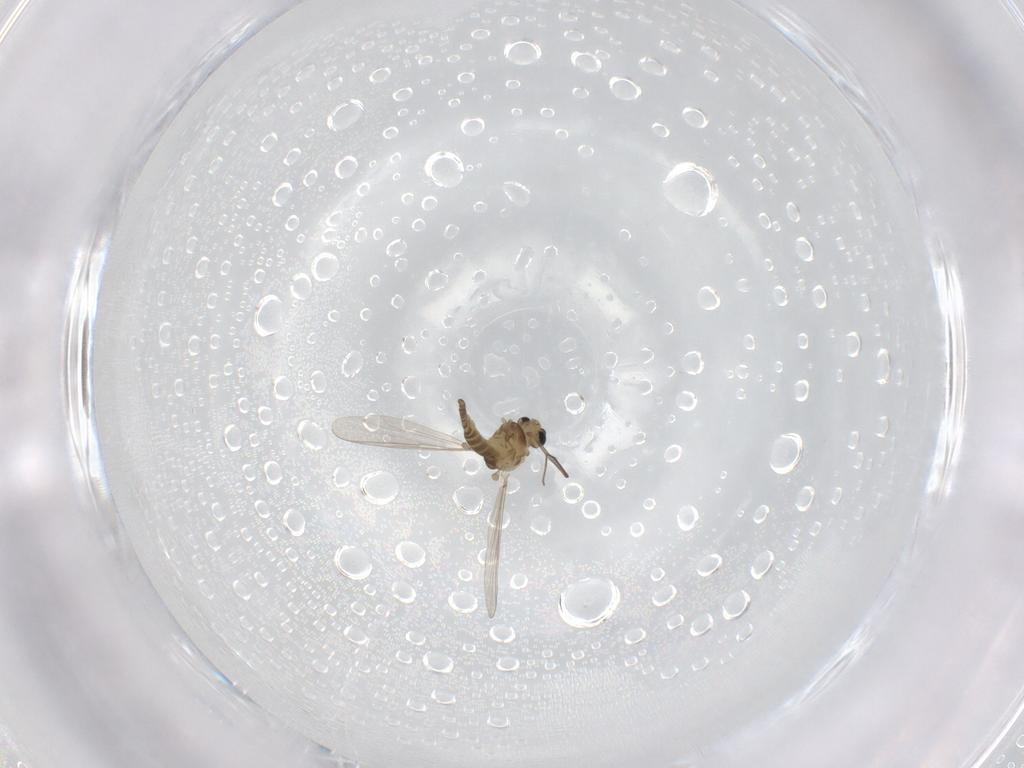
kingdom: Animalia
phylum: Arthropoda
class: Insecta
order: Diptera
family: Chironomidae
